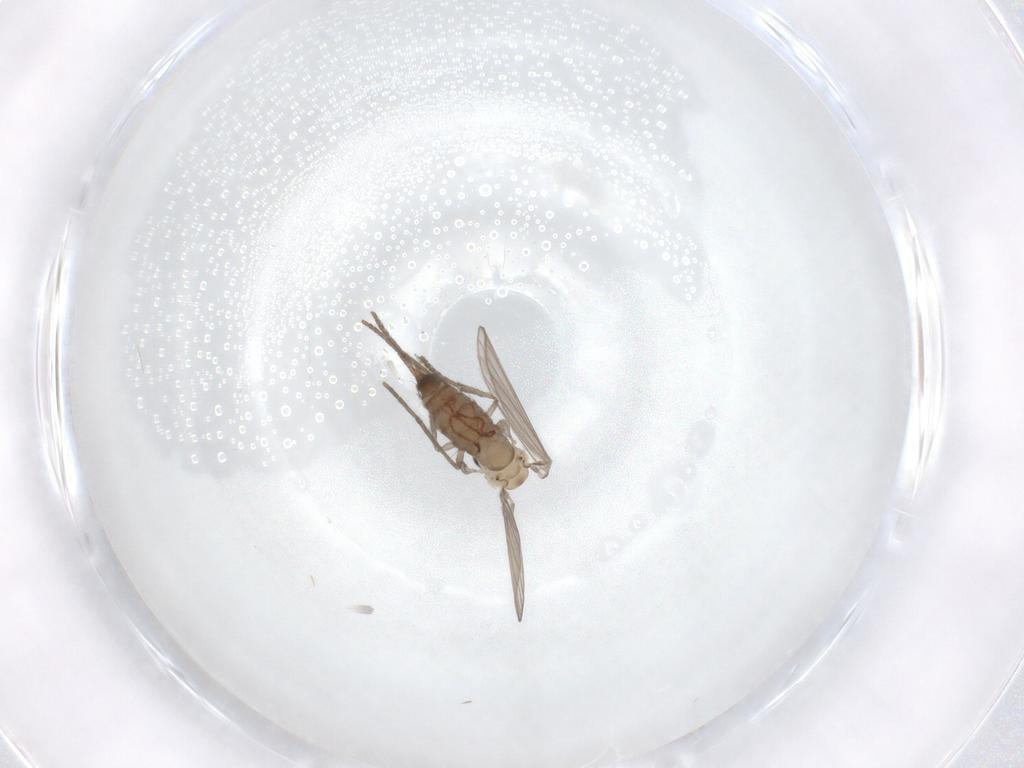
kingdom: Animalia
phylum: Arthropoda
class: Insecta
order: Diptera
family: Psychodidae
